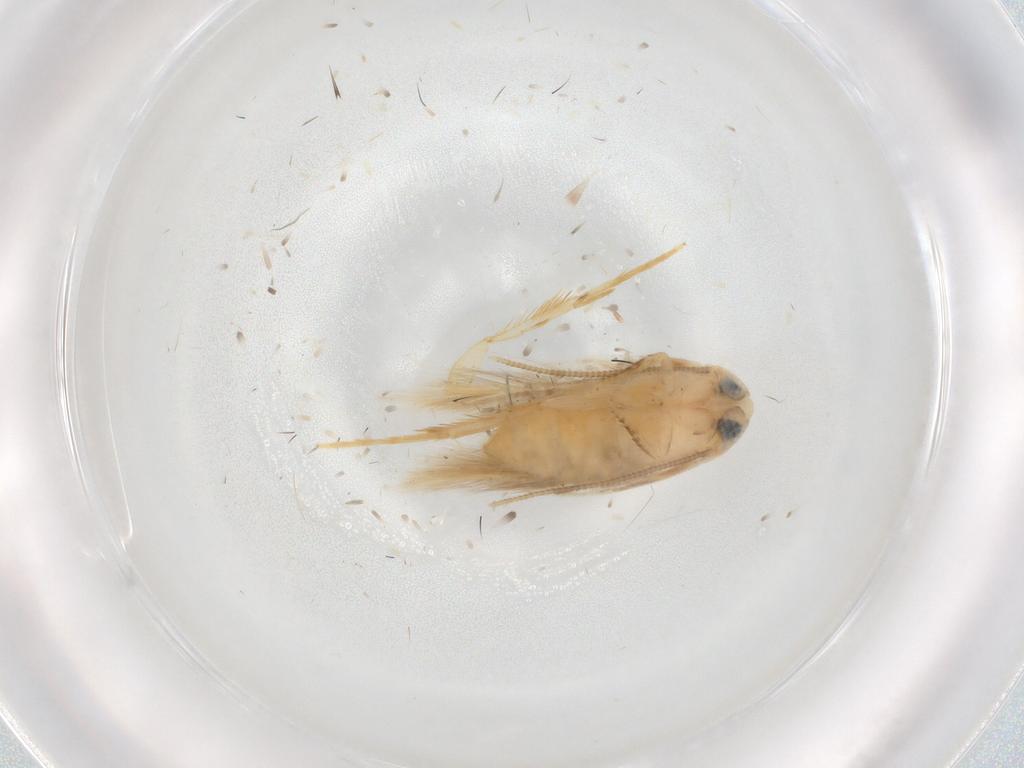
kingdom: Animalia
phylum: Arthropoda
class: Insecta
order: Lepidoptera
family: Opostegidae
